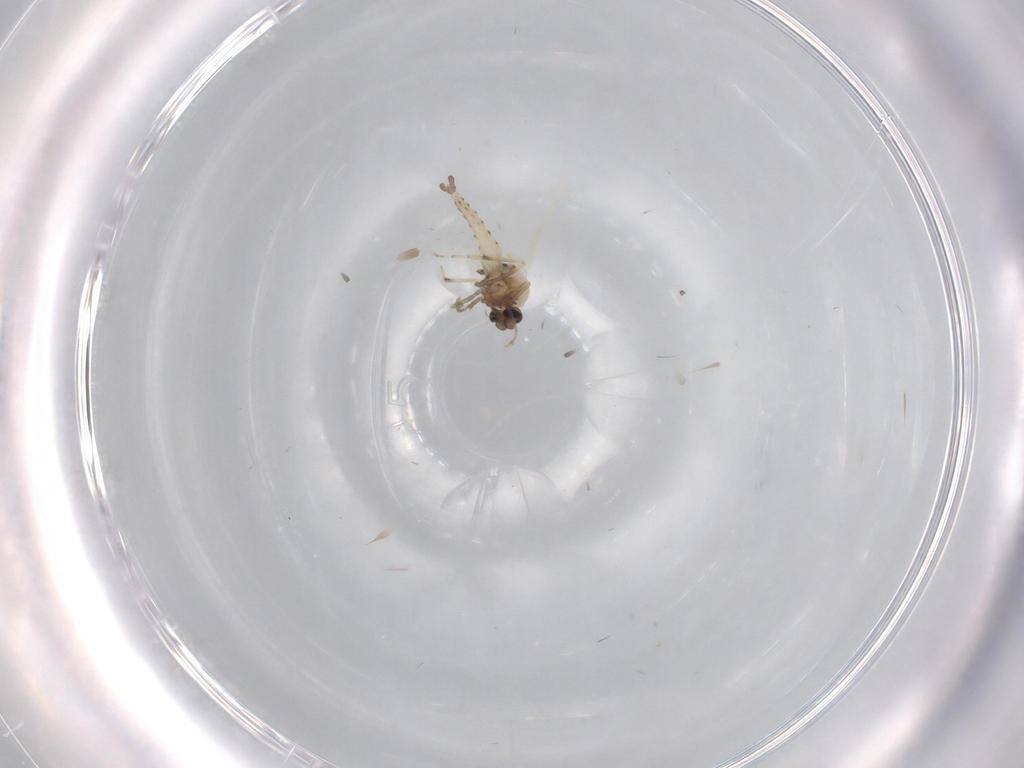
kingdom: Animalia
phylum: Arthropoda
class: Insecta
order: Diptera
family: Ceratopogonidae
